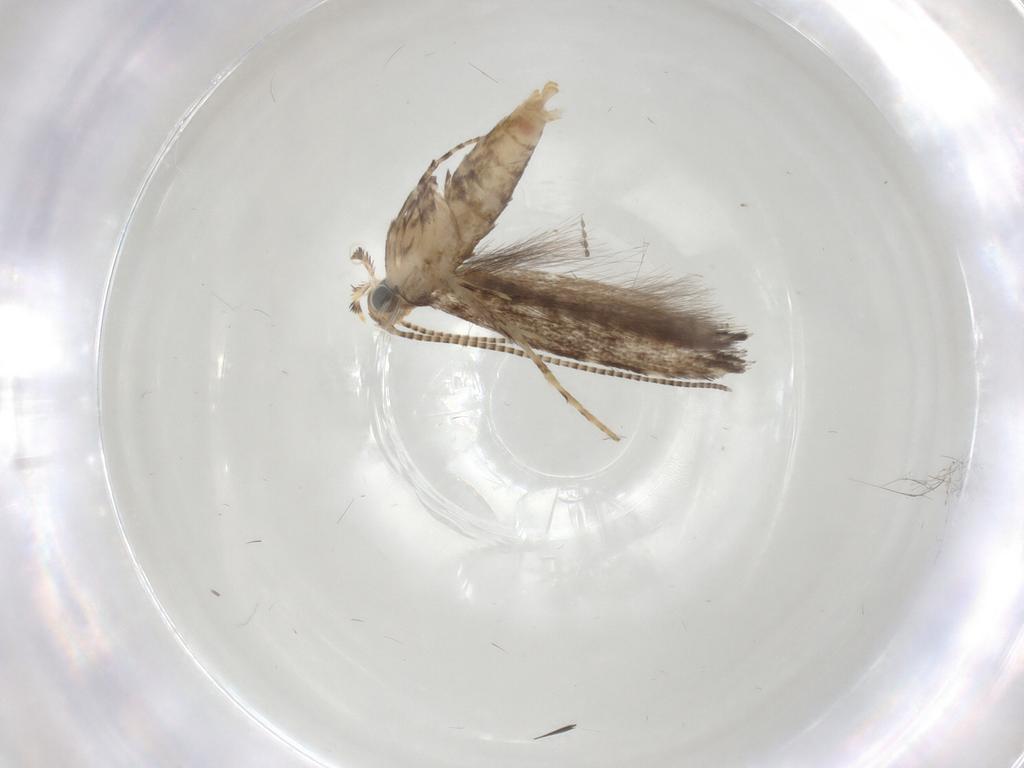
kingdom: Animalia
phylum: Arthropoda
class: Insecta
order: Lepidoptera
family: Gracillariidae
